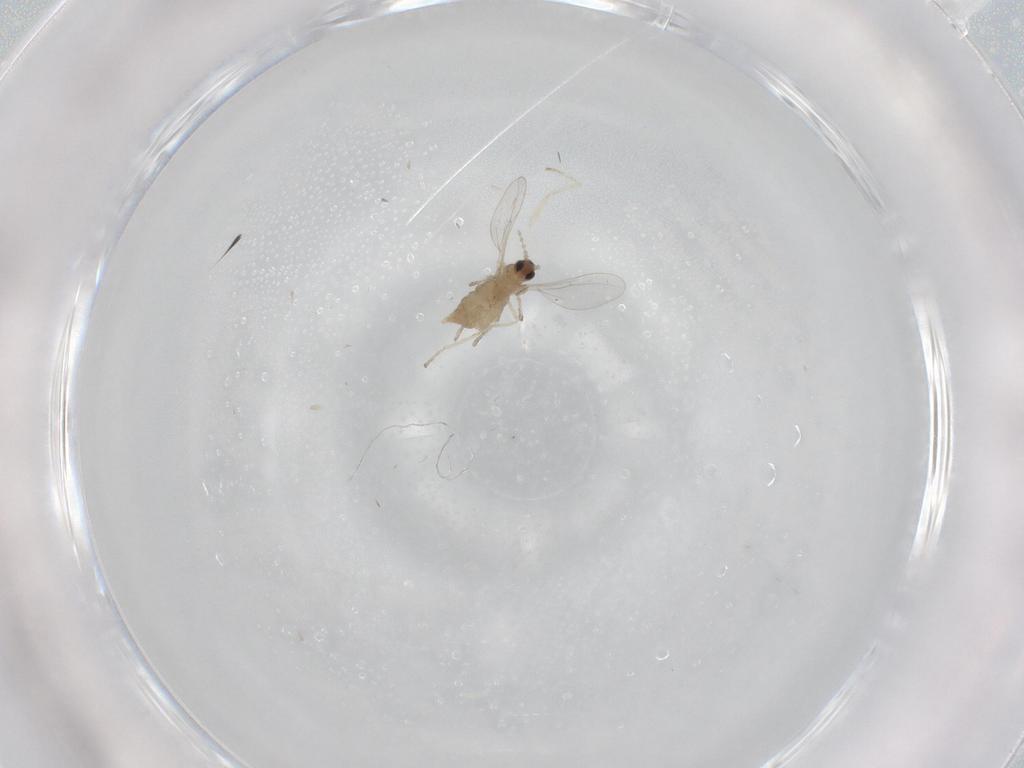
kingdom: Animalia
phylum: Arthropoda
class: Insecta
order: Diptera
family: Cecidomyiidae
